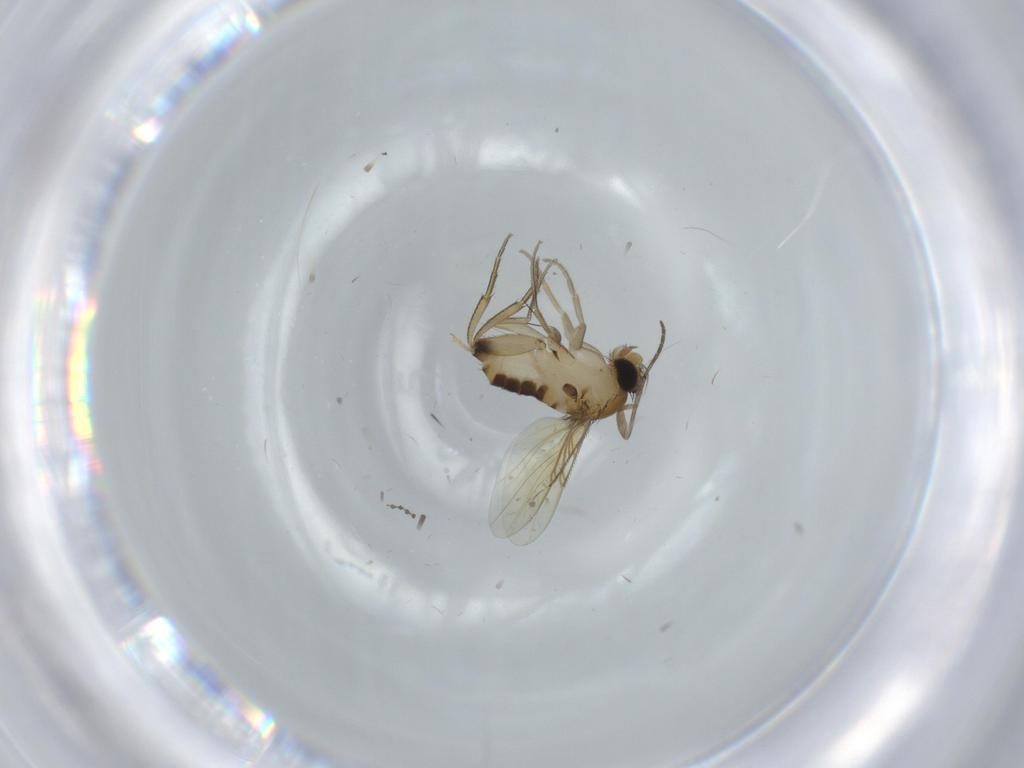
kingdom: Animalia
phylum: Arthropoda
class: Insecta
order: Diptera
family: Cecidomyiidae
